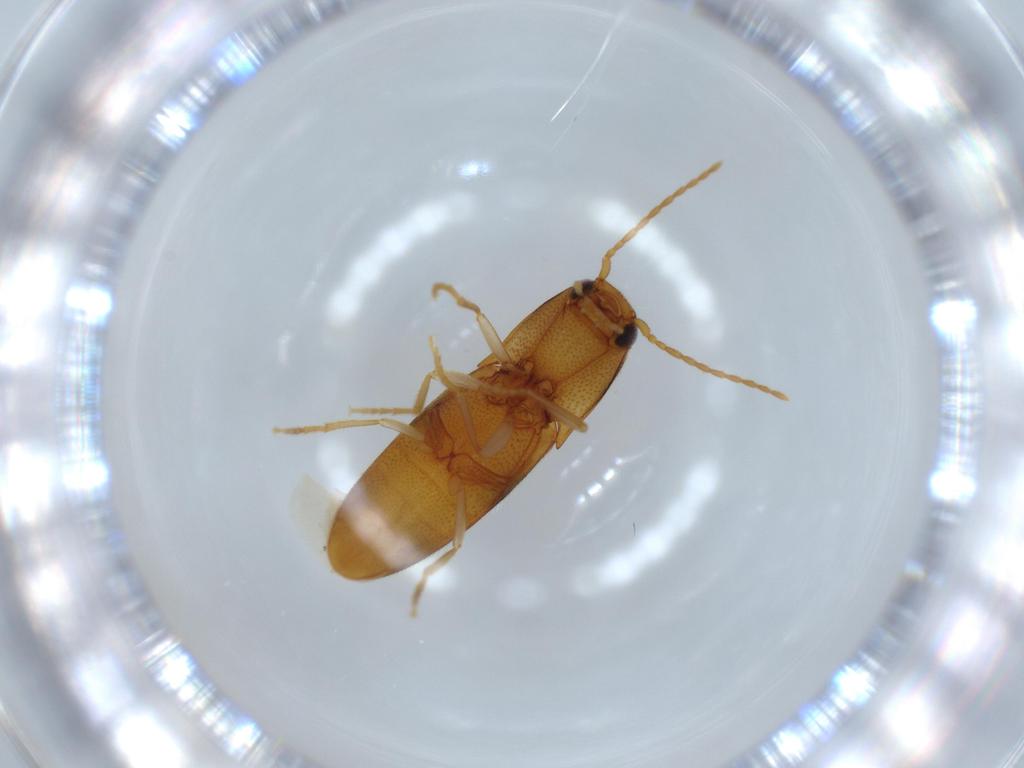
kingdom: Animalia
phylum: Arthropoda
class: Insecta
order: Coleoptera
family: Elateridae
